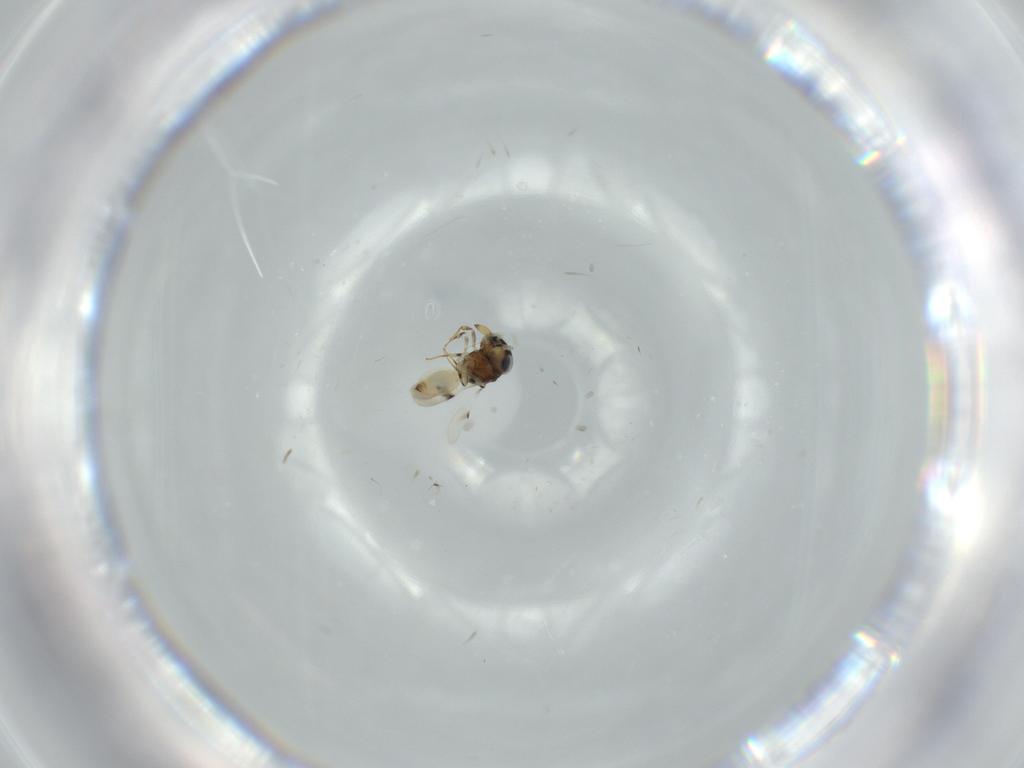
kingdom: Animalia
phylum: Arthropoda
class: Insecta
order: Hymenoptera
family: Scelionidae
